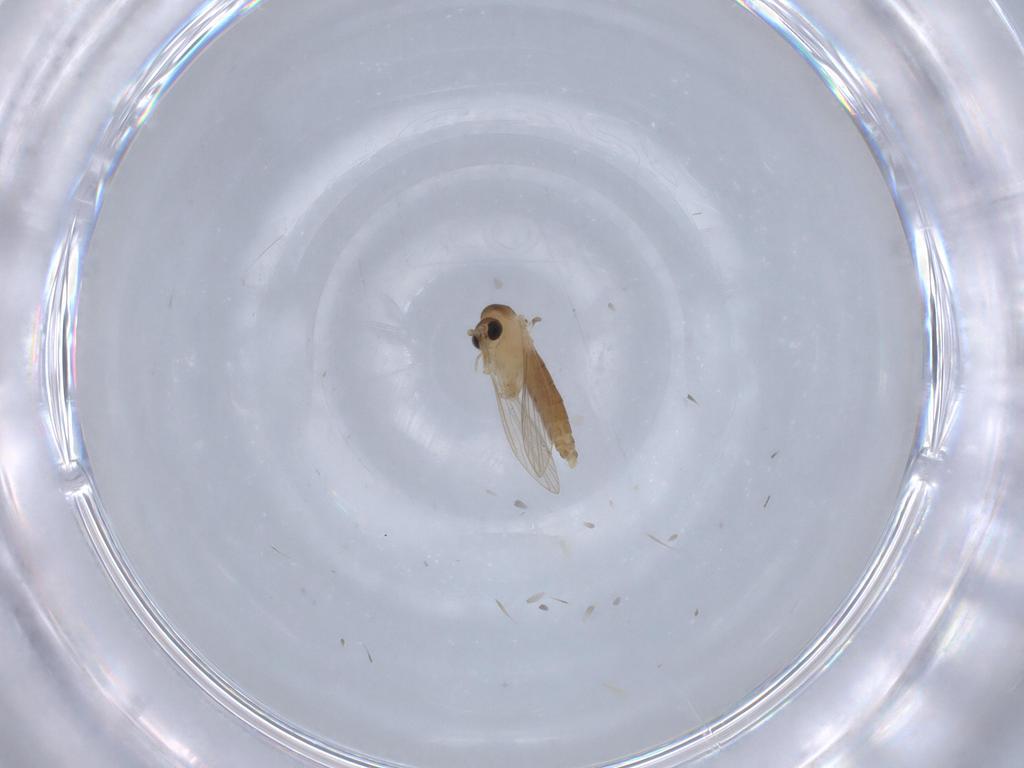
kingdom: Animalia
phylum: Arthropoda
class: Insecta
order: Diptera
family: Psychodidae
